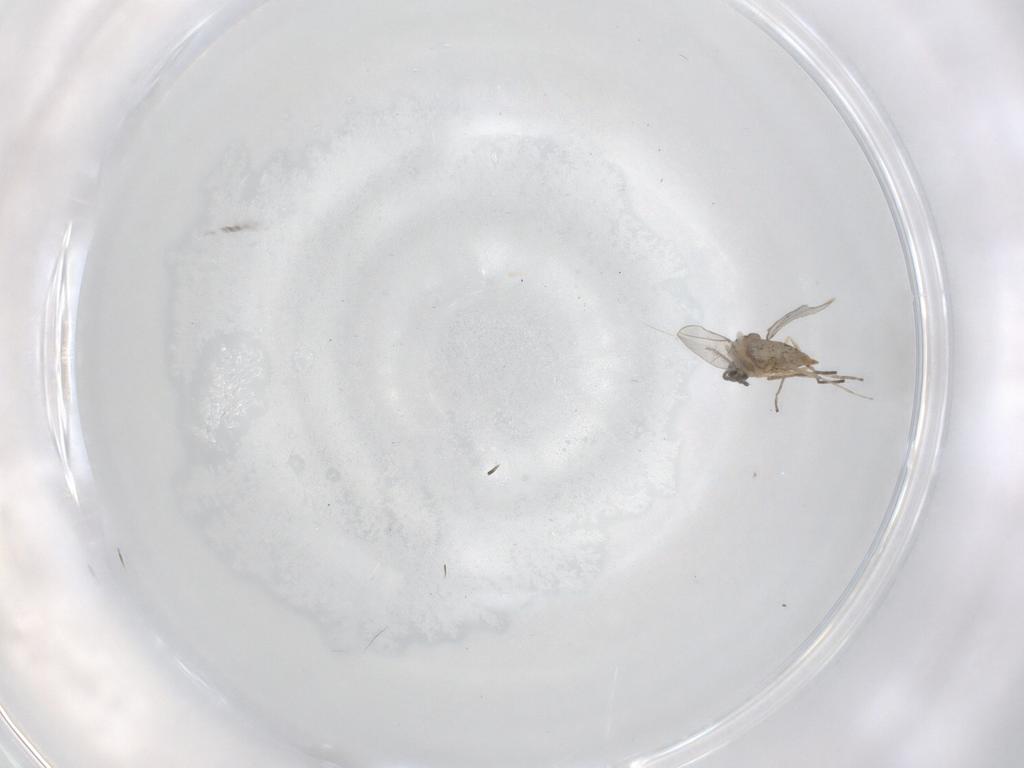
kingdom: Animalia
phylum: Arthropoda
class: Insecta
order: Diptera
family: Cecidomyiidae
